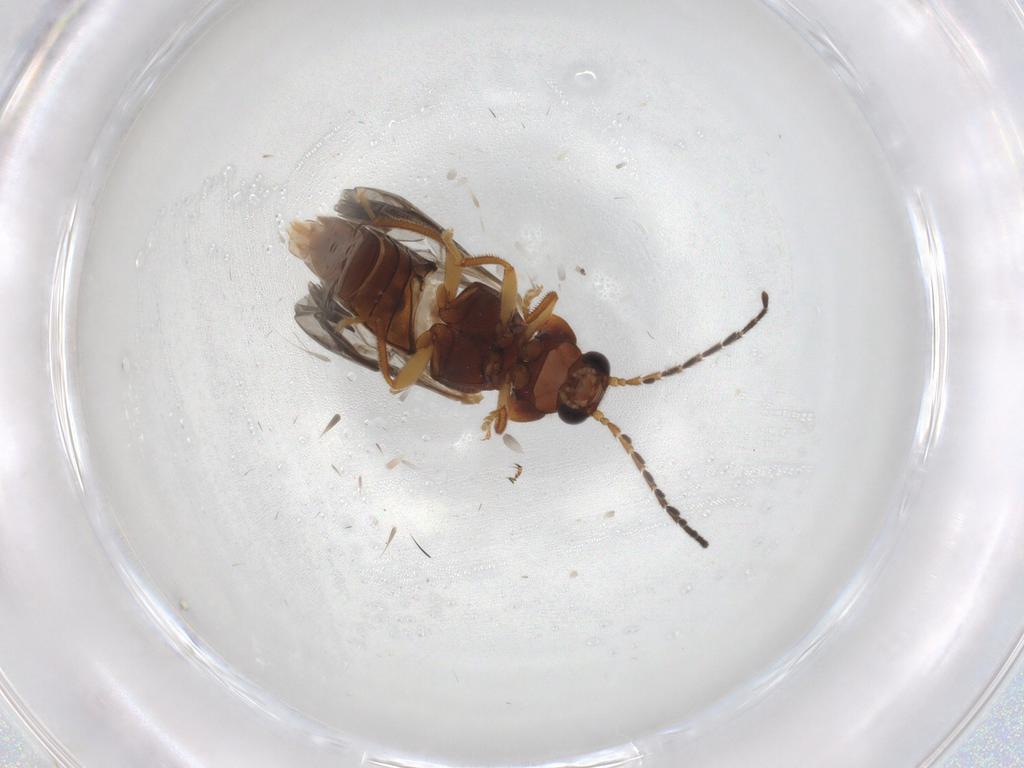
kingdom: Animalia
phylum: Arthropoda
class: Insecta
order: Coleoptera
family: Ptilodactylidae
